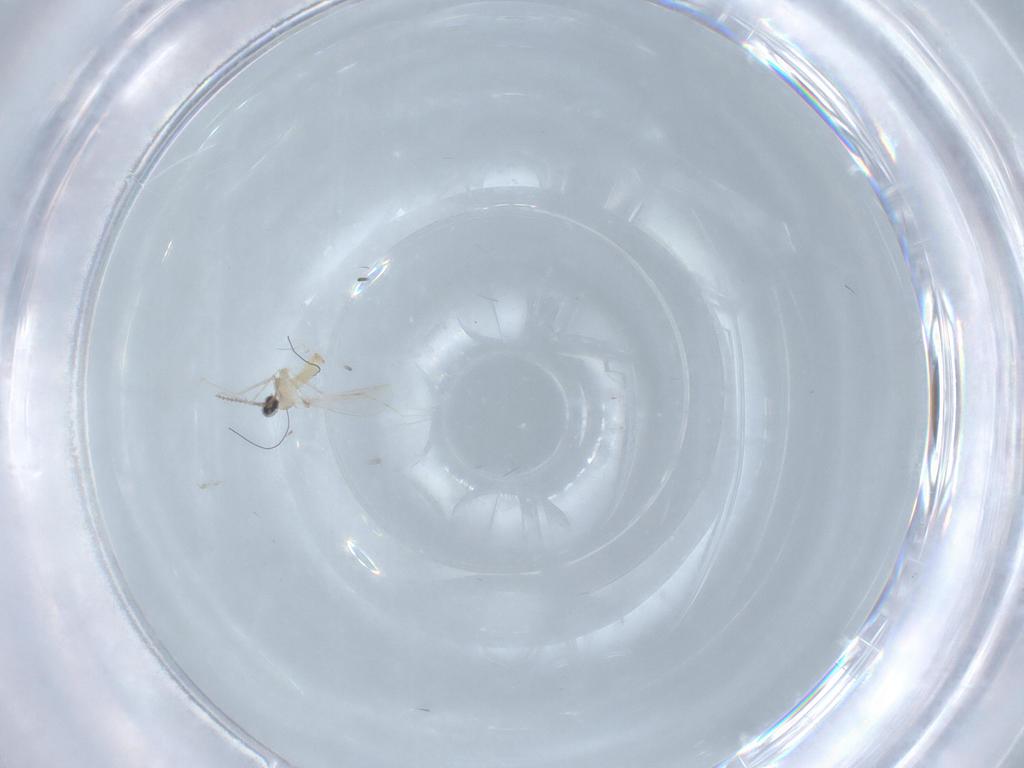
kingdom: Animalia
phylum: Arthropoda
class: Insecta
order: Diptera
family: Cecidomyiidae
